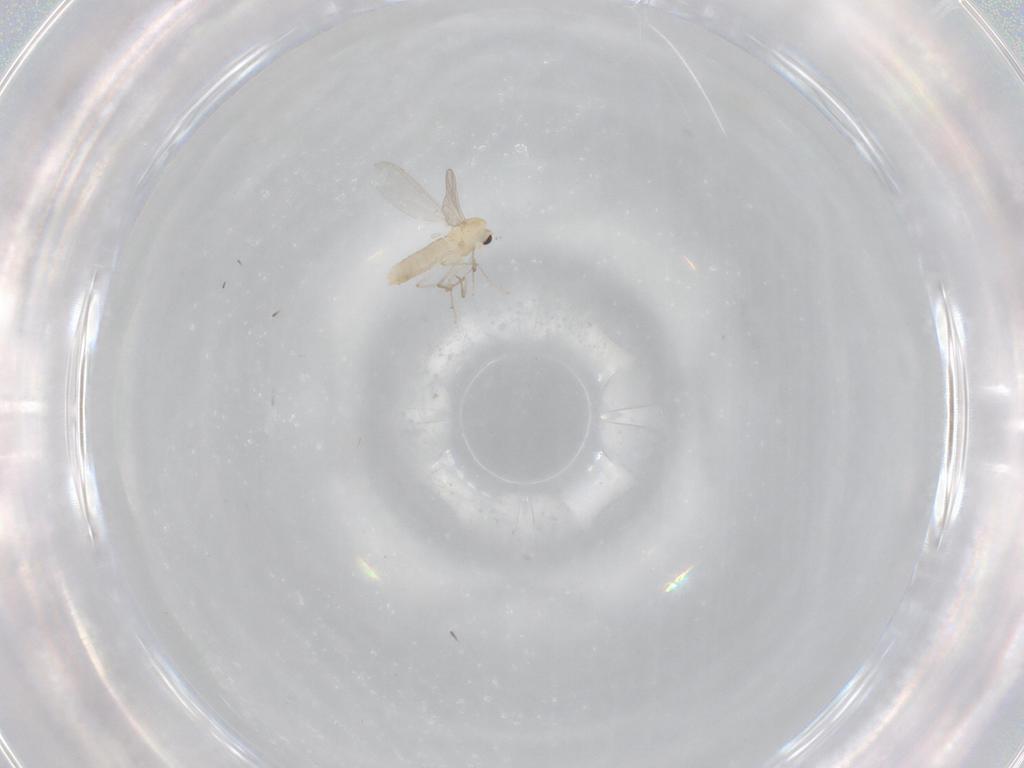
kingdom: Animalia
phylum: Arthropoda
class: Insecta
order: Diptera
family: Chironomidae
